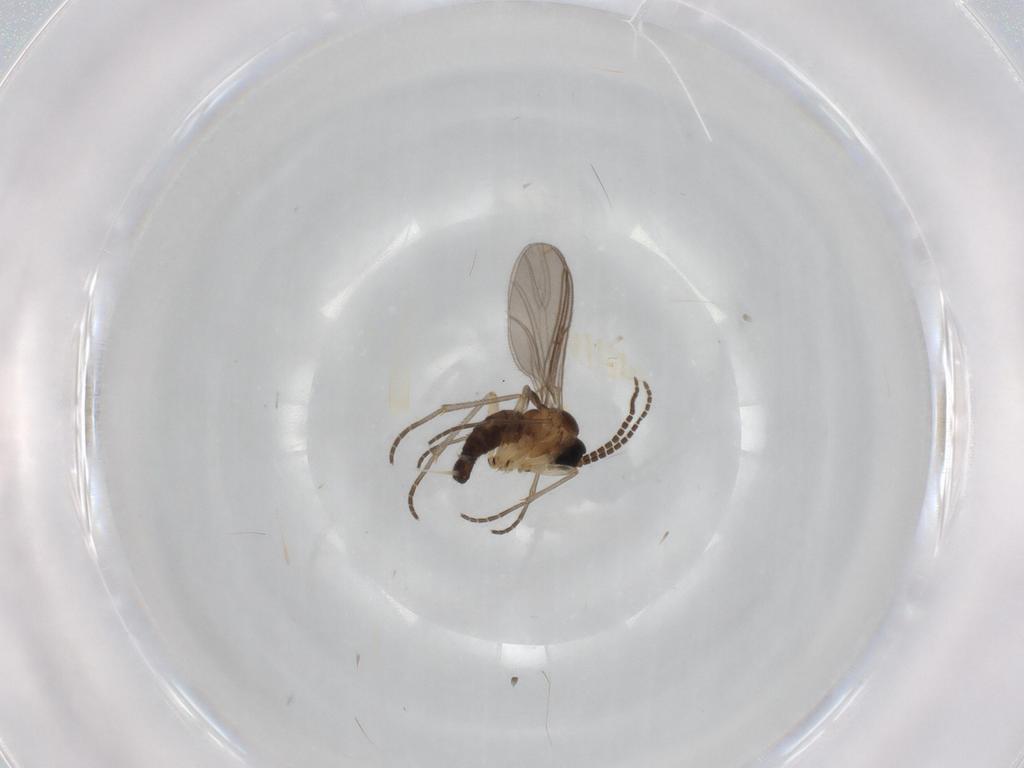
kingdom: Animalia
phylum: Arthropoda
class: Insecta
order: Diptera
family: Sciaridae
